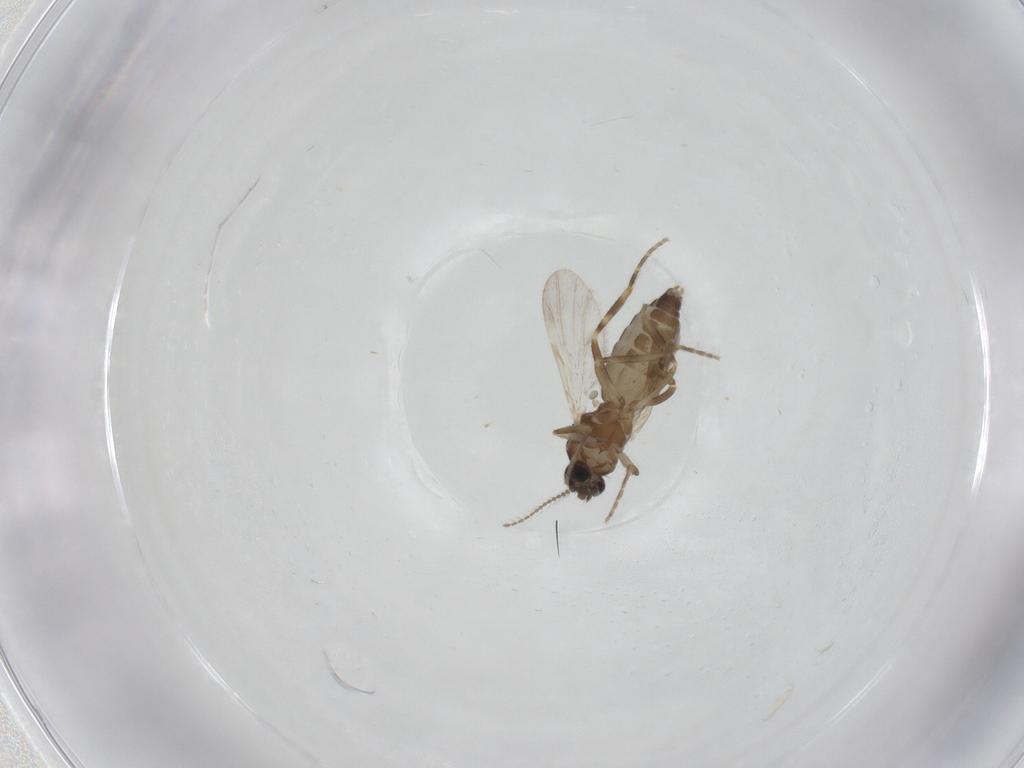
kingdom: Animalia
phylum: Arthropoda
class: Insecta
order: Diptera
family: Ceratopogonidae
